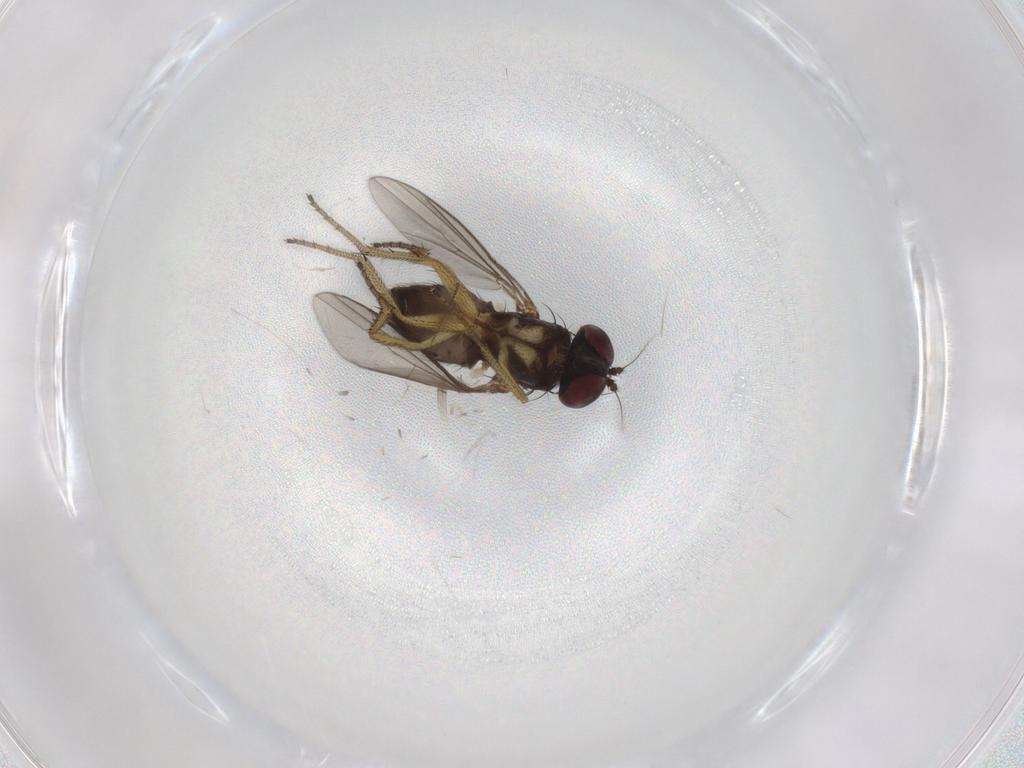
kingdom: Animalia
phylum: Arthropoda
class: Insecta
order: Diptera
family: Chironomidae
